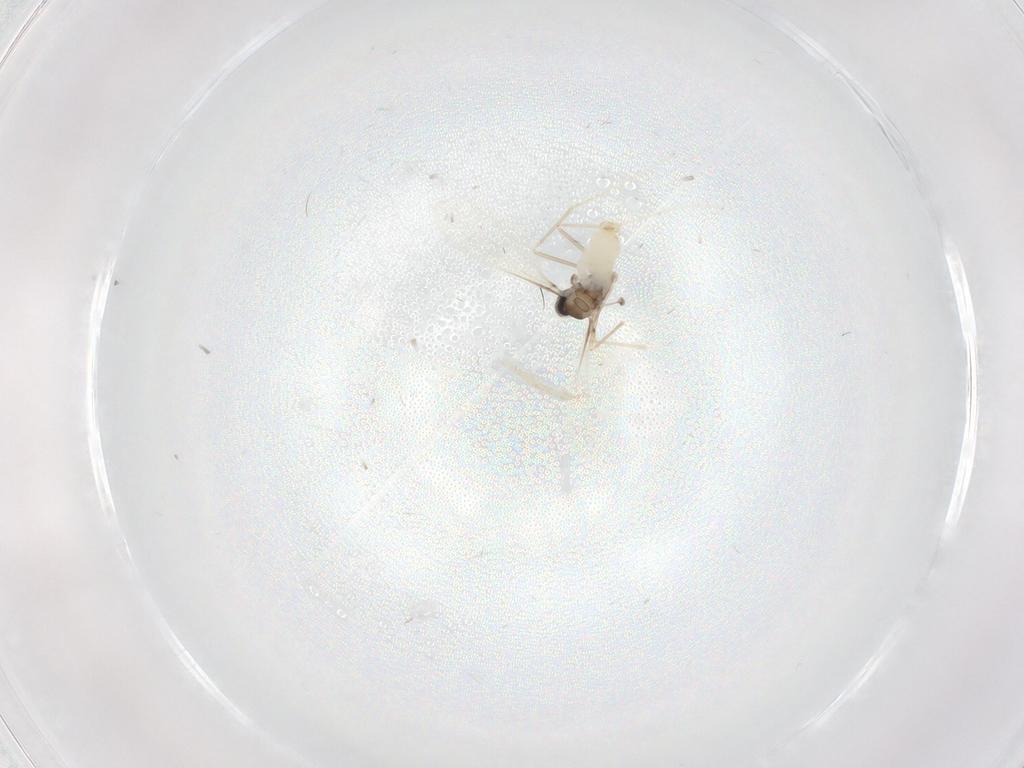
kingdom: Animalia
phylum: Arthropoda
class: Insecta
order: Diptera
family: Cecidomyiidae
